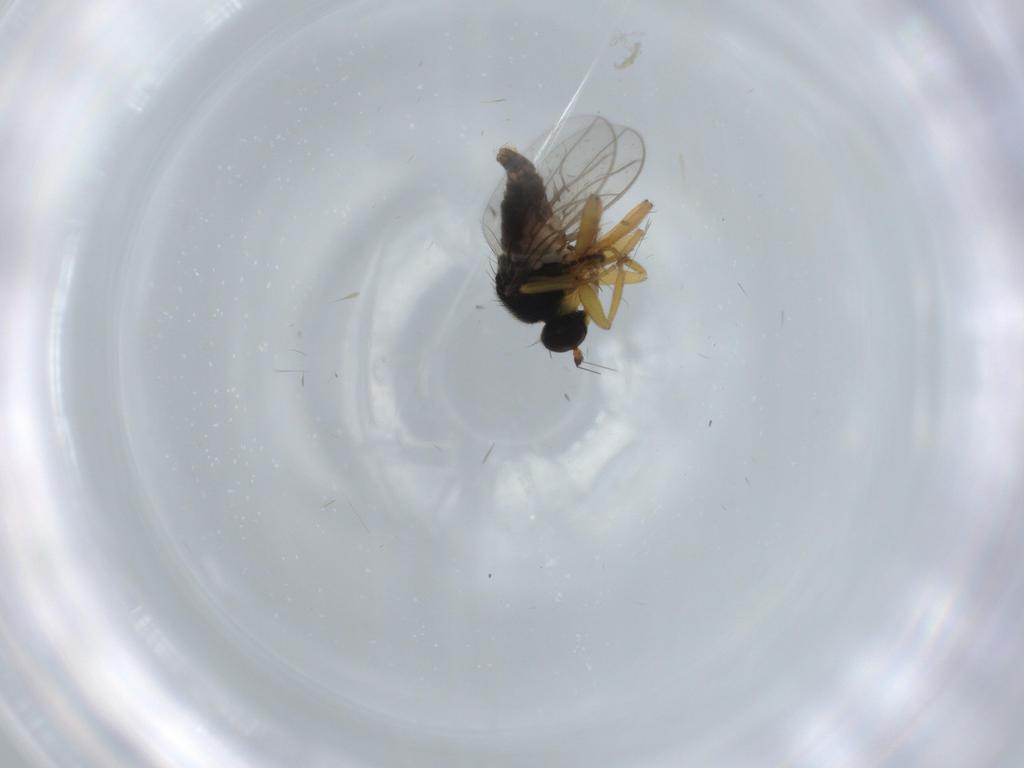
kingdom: Animalia
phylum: Arthropoda
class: Insecta
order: Diptera
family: Hybotidae
